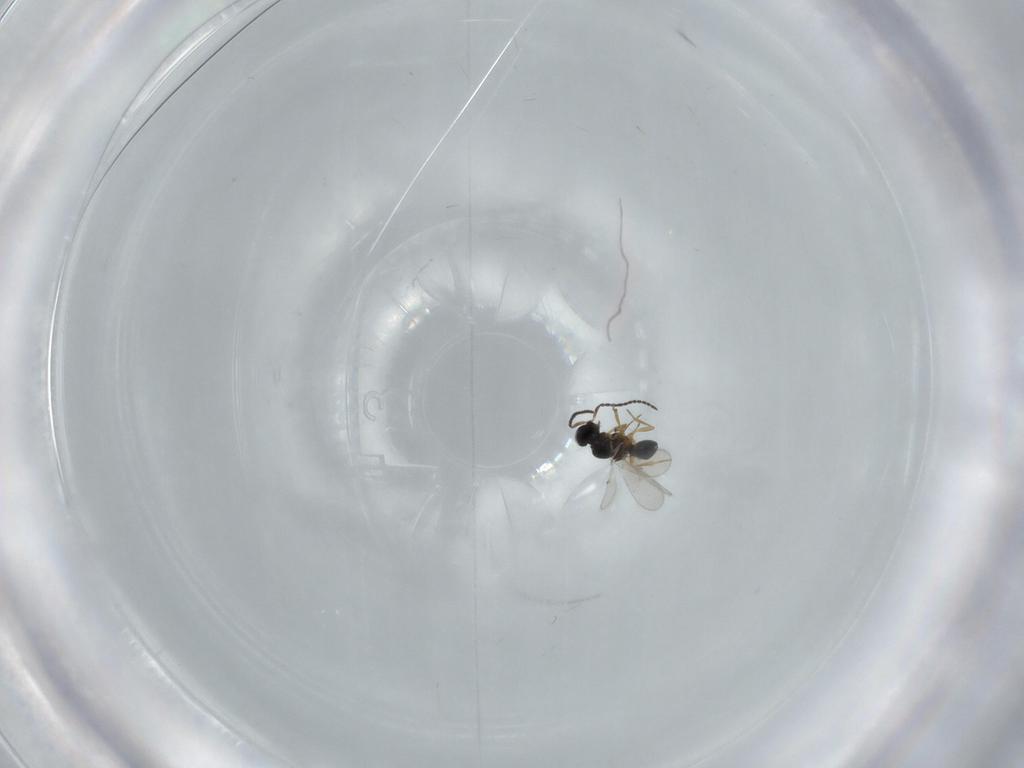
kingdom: Animalia
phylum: Arthropoda
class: Insecta
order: Hymenoptera
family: Scelionidae
